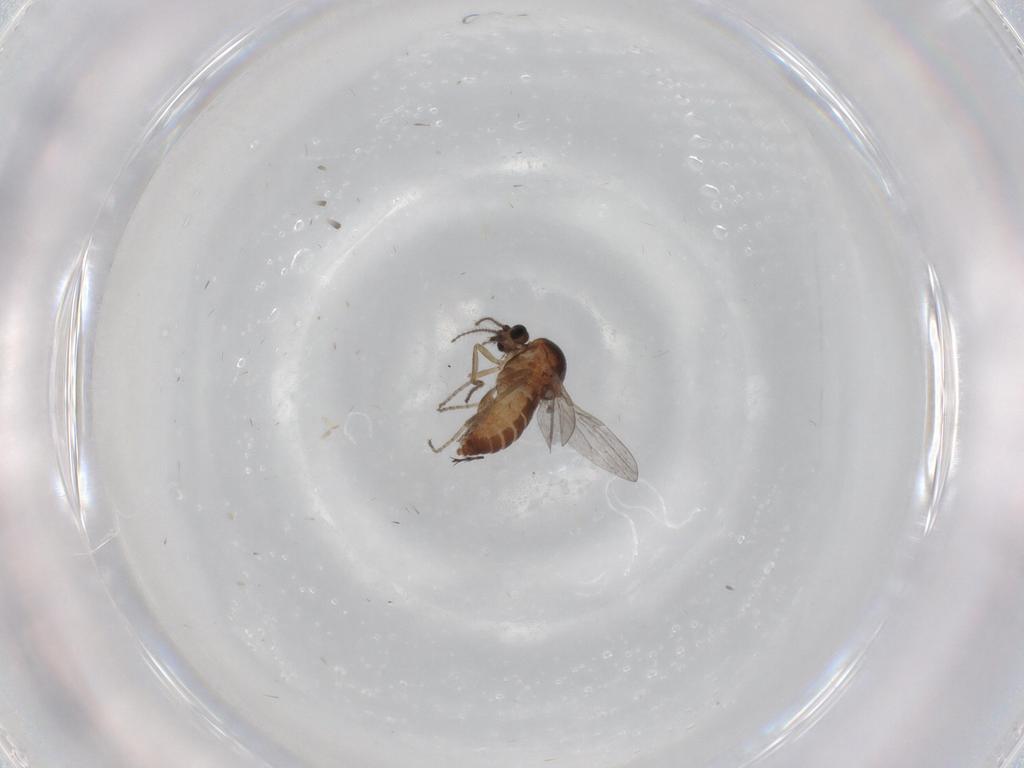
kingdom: Animalia
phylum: Arthropoda
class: Insecta
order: Diptera
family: Ceratopogonidae
